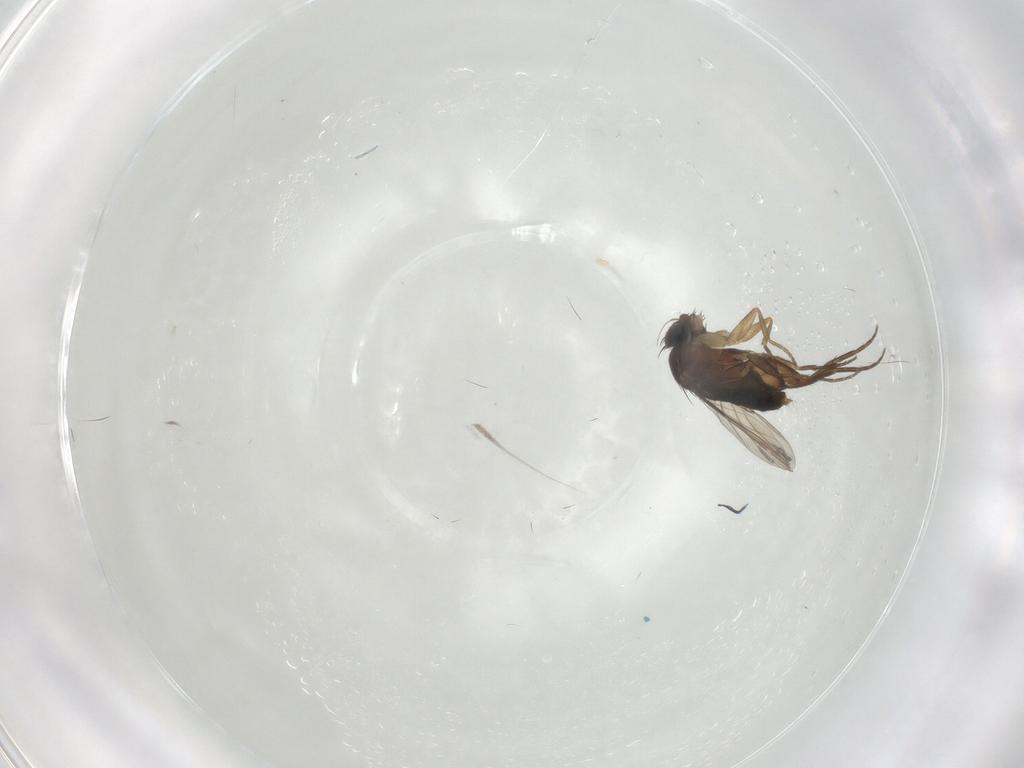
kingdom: Animalia
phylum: Arthropoda
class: Insecta
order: Diptera
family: Phoridae
